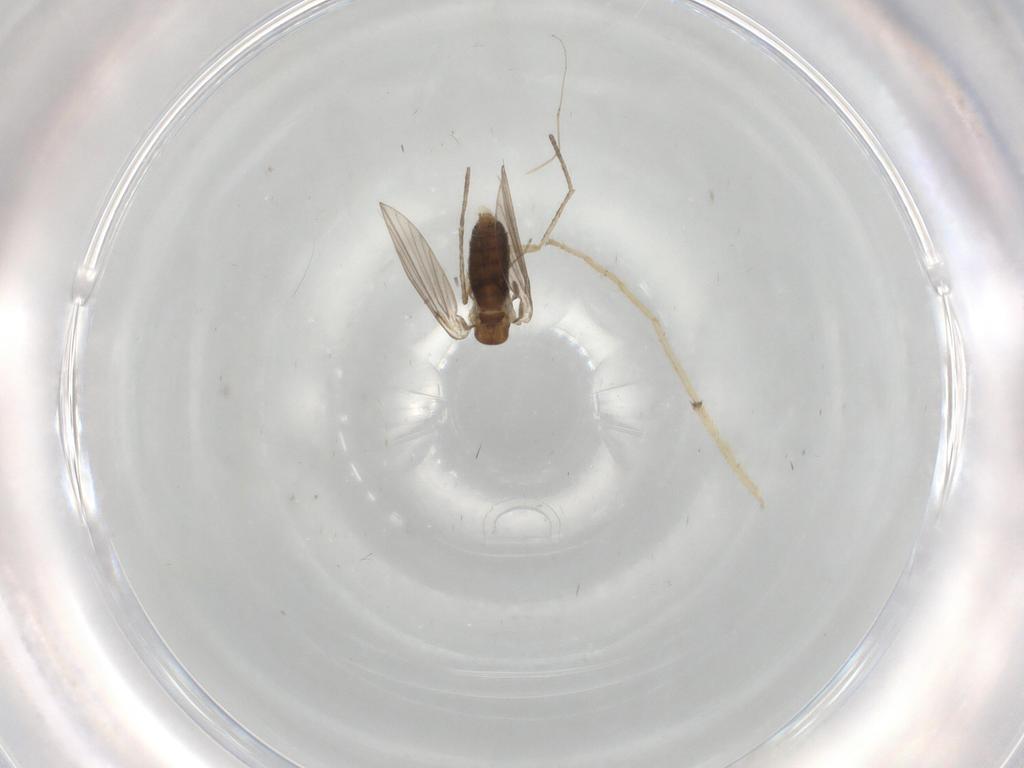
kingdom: Animalia
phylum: Arthropoda
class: Insecta
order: Diptera
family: Chironomidae
